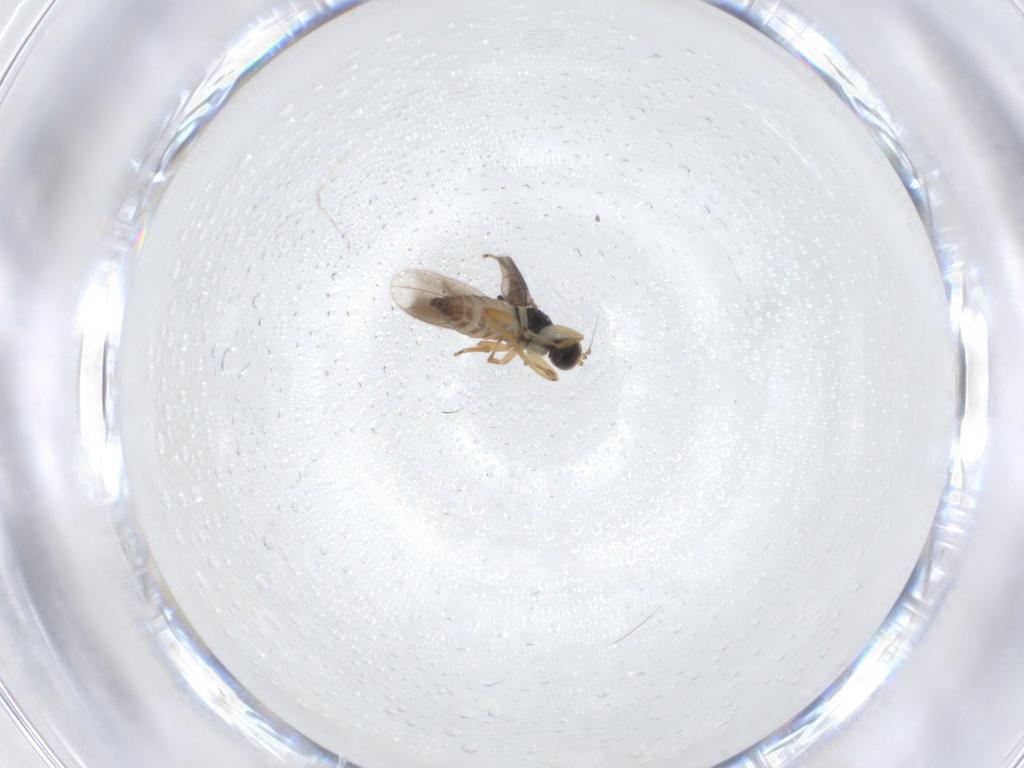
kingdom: Animalia
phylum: Arthropoda
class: Insecta
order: Diptera
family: Hybotidae
